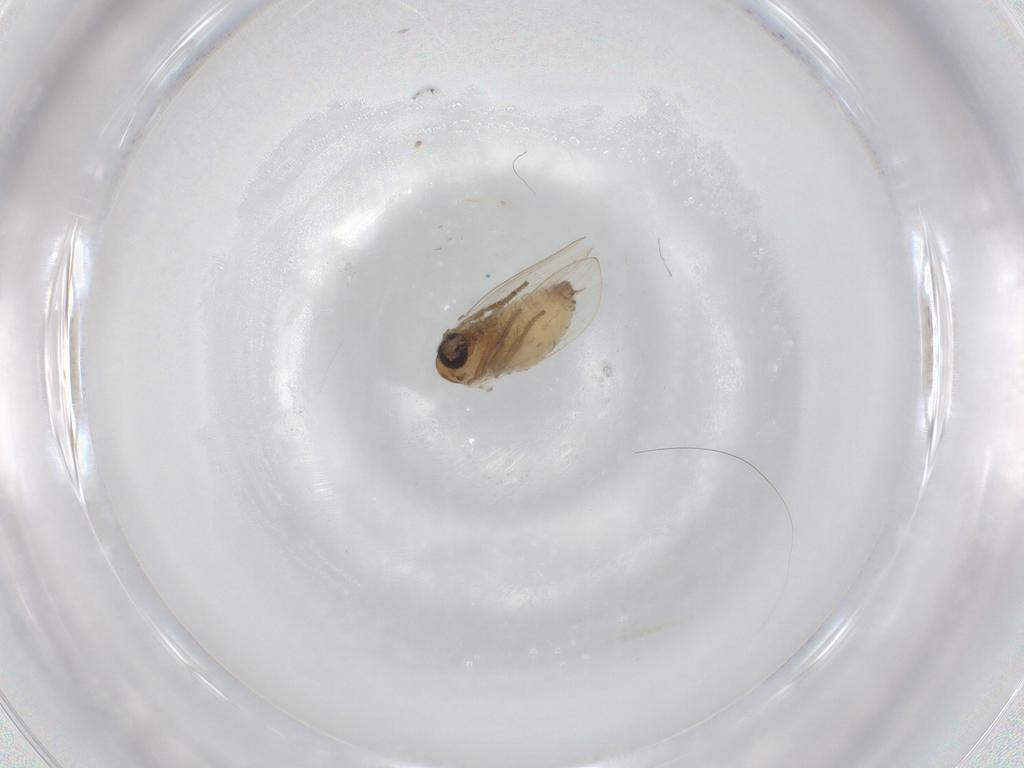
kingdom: Animalia
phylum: Arthropoda
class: Insecta
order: Diptera
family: Psychodidae
